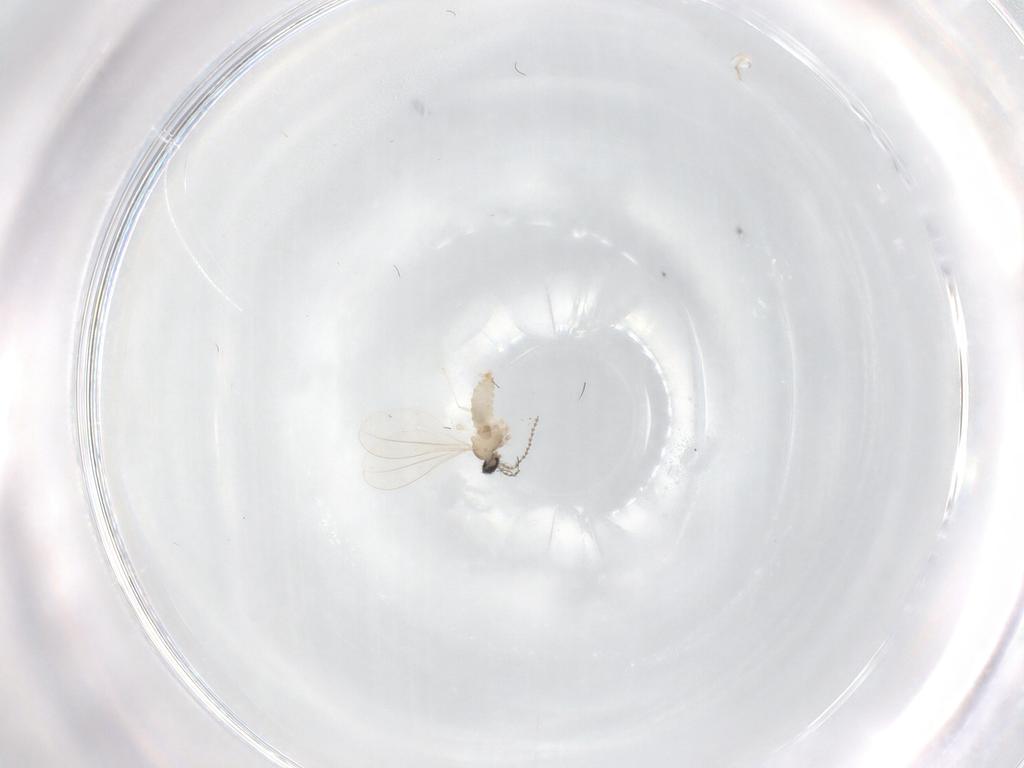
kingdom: Animalia
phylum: Arthropoda
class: Insecta
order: Diptera
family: Cecidomyiidae
